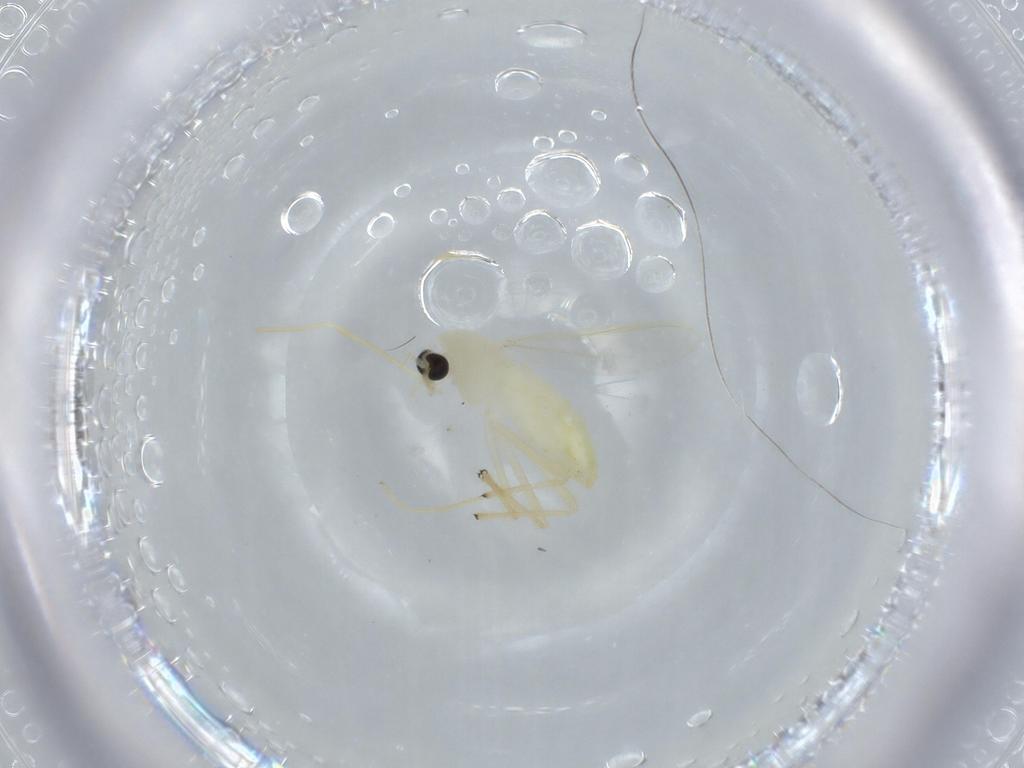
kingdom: Animalia
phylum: Arthropoda
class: Insecta
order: Diptera
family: Chironomidae
